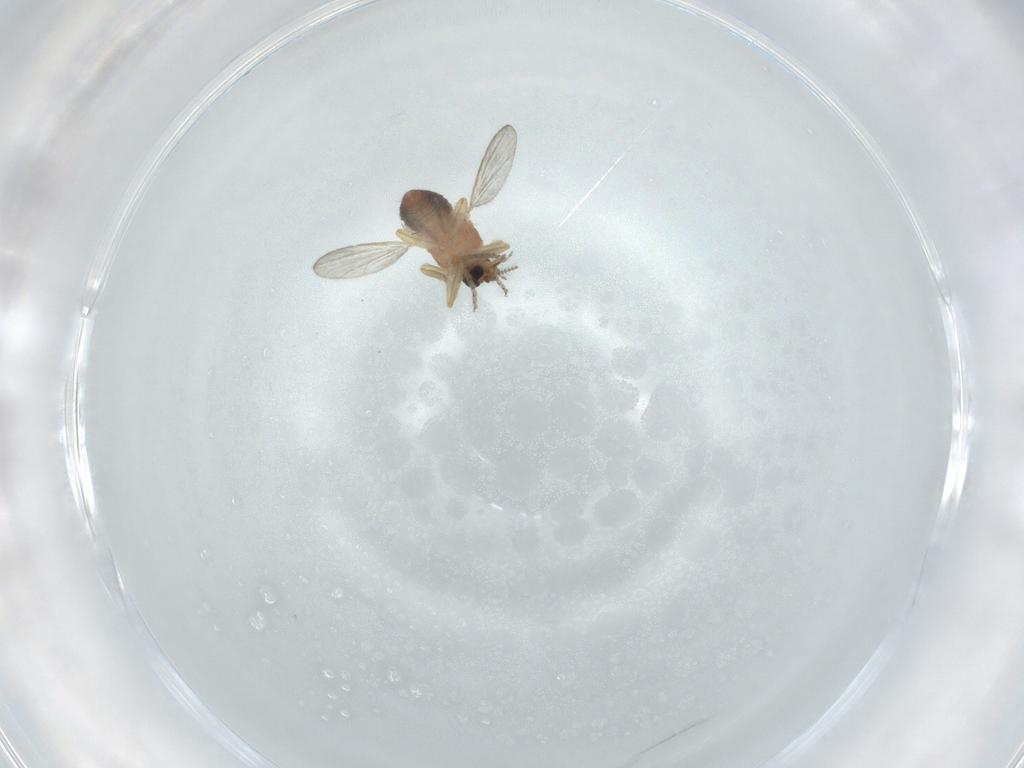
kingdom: Animalia
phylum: Arthropoda
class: Insecta
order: Diptera
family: Ceratopogonidae
